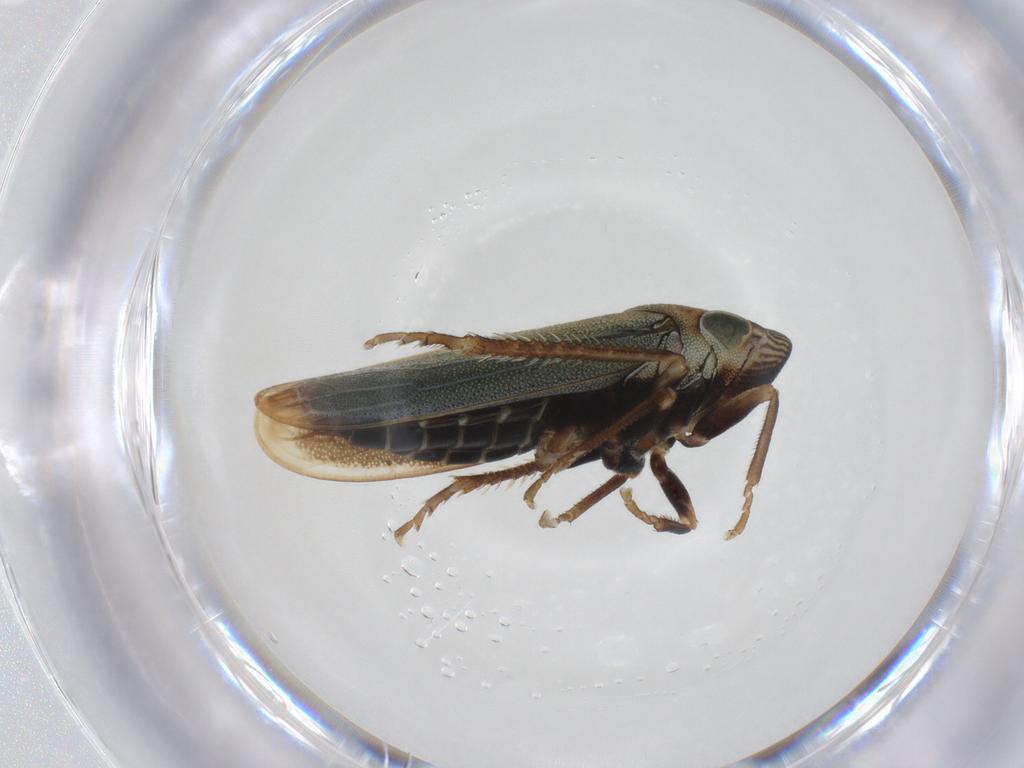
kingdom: Animalia
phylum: Arthropoda
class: Insecta
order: Hemiptera
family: Cicadellidae
